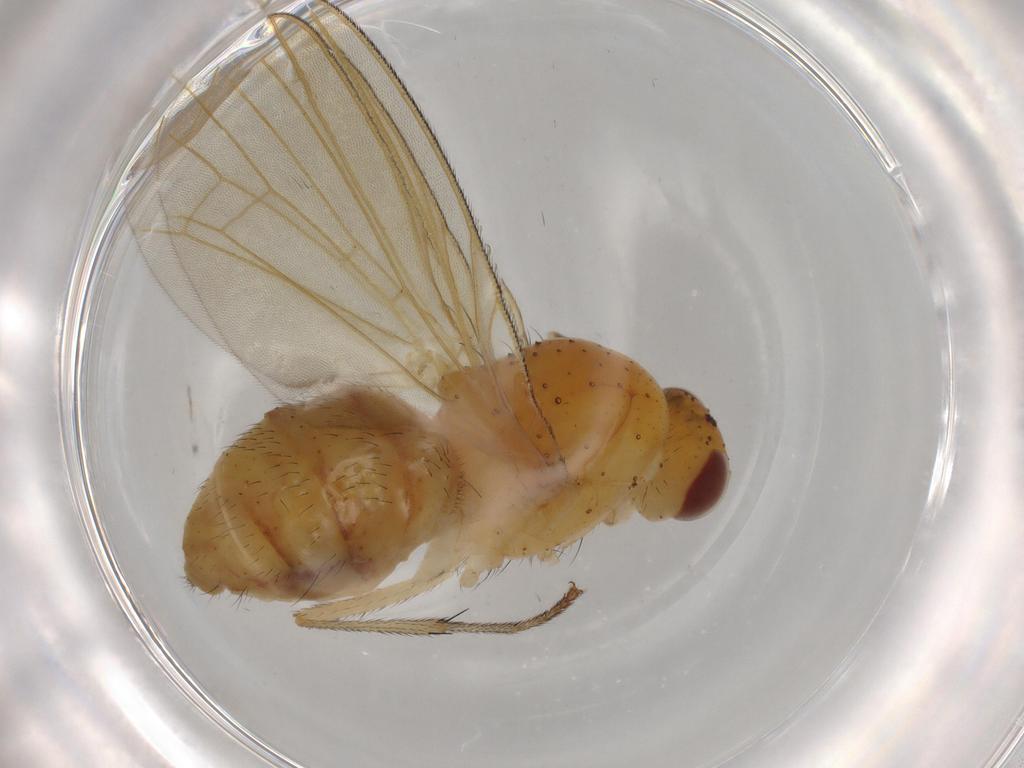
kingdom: Animalia
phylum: Arthropoda
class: Insecta
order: Diptera
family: Hybotidae
